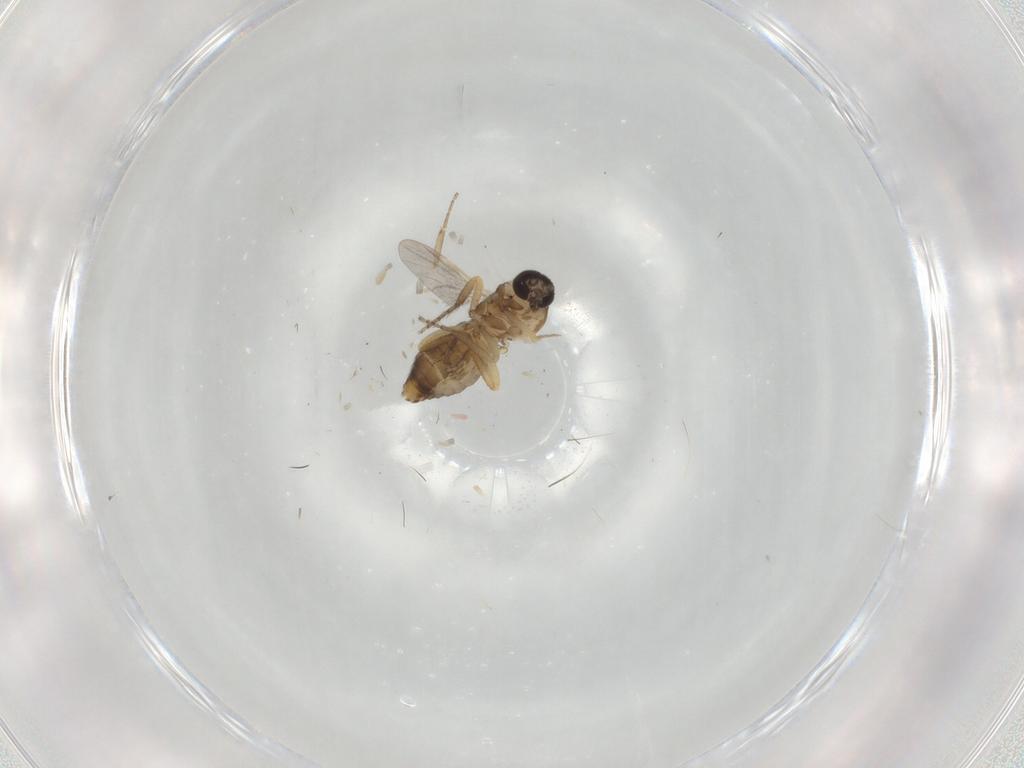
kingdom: Animalia
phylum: Arthropoda
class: Insecta
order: Diptera
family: Ceratopogonidae
